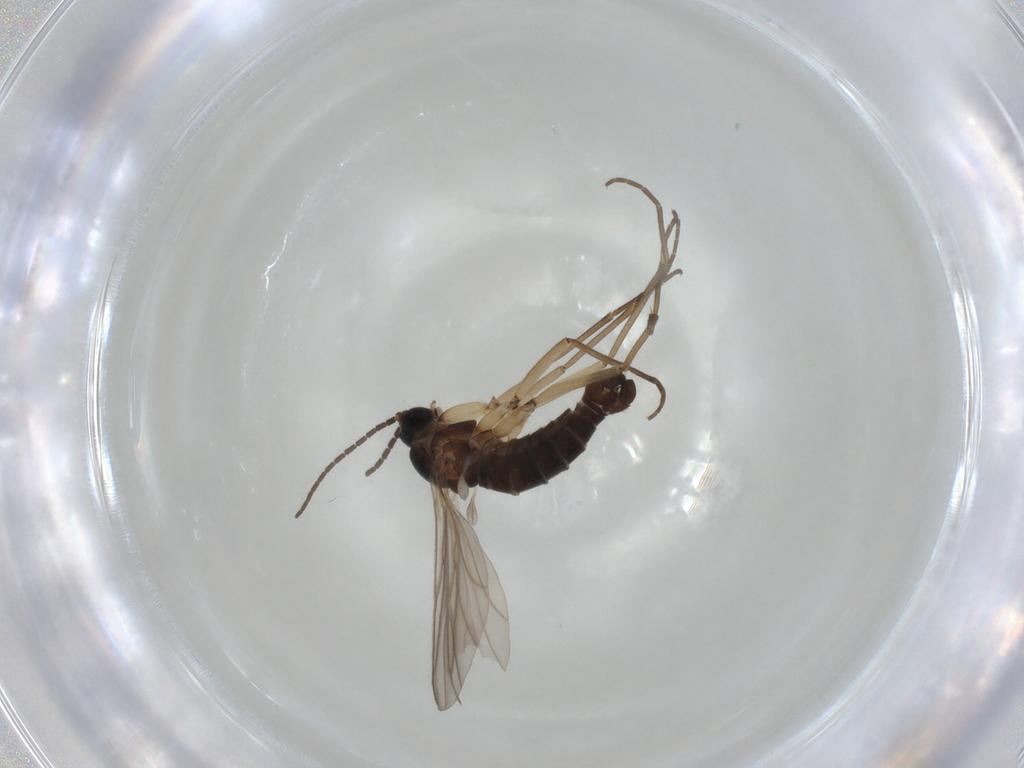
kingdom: Animalia
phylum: Arthropoda
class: Insecta
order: Diptera
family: Sciaridae
